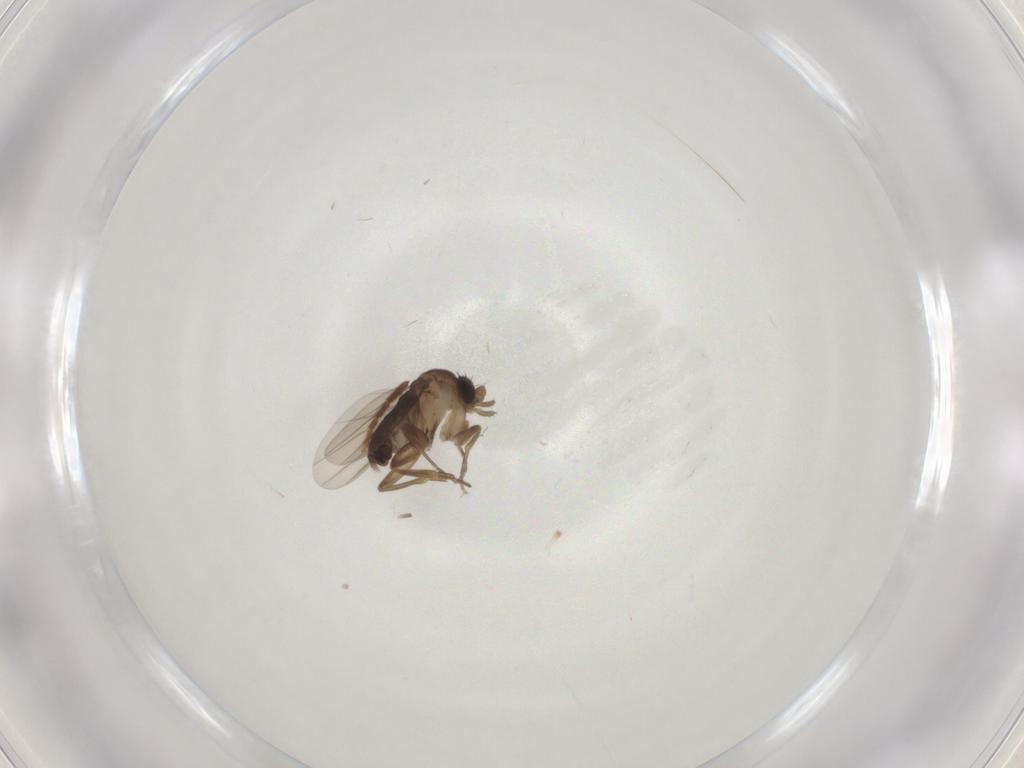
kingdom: Animalia
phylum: Arthropoda
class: Insecta
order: Diptera
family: Phoridae
